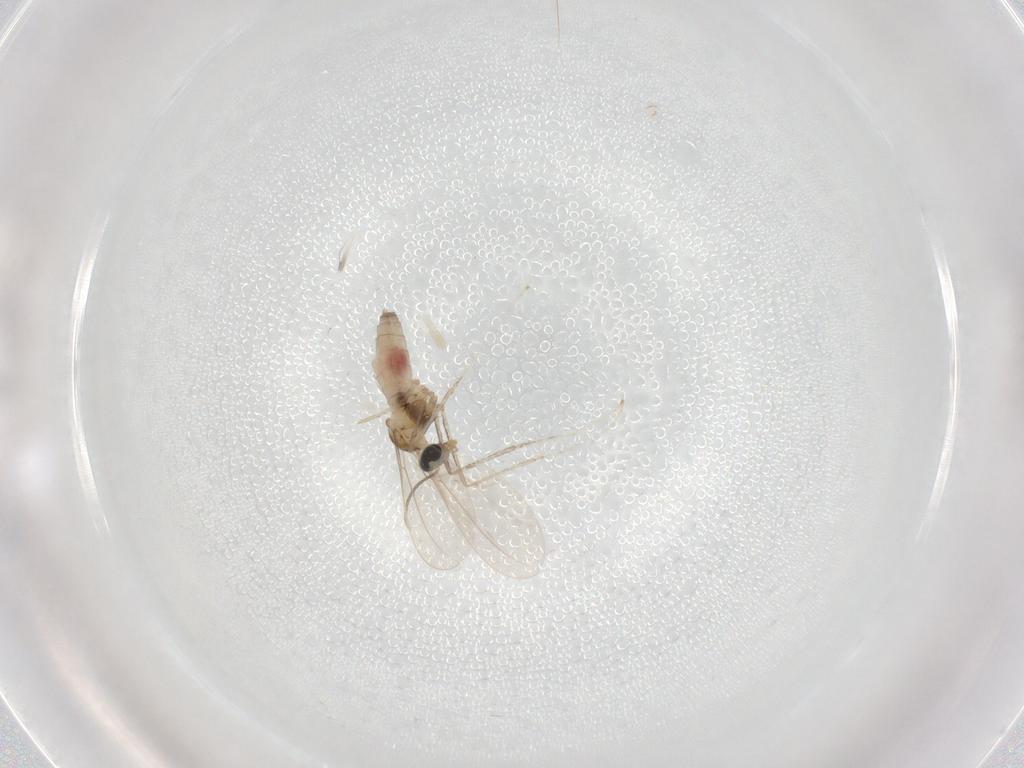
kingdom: Animalia
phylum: Arthropoda
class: Insecta
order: Diptera
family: Cecidomyiidae
